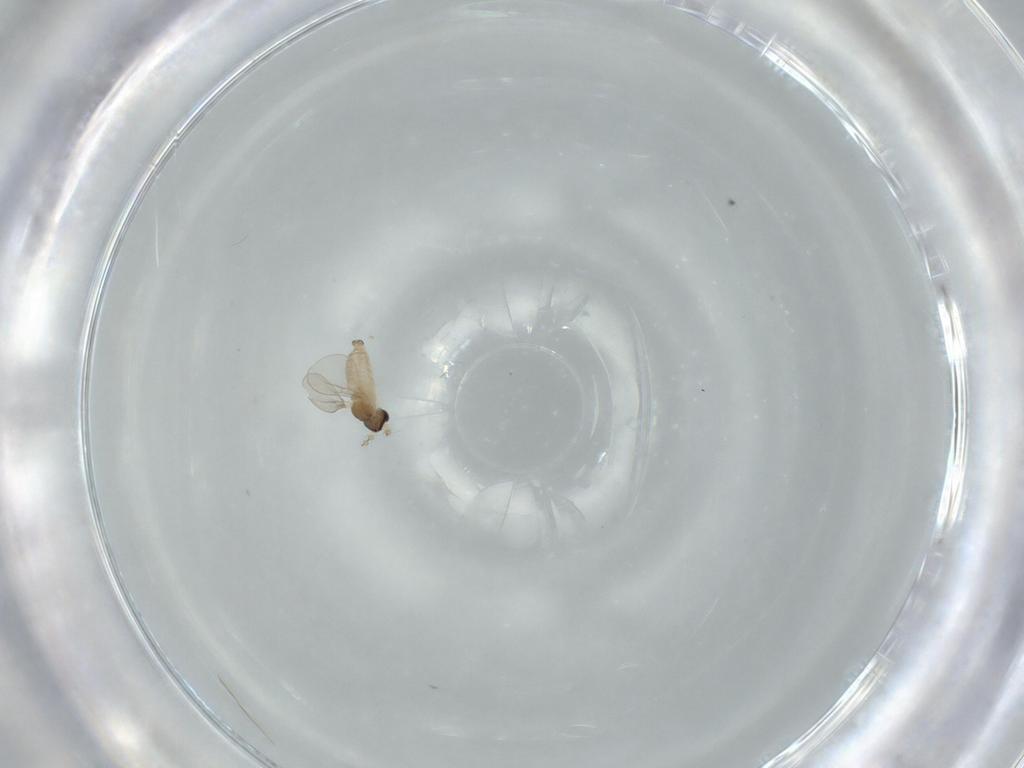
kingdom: Animalia
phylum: Arthropoda
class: Insecta
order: Diptera
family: Cecidomyiidae
